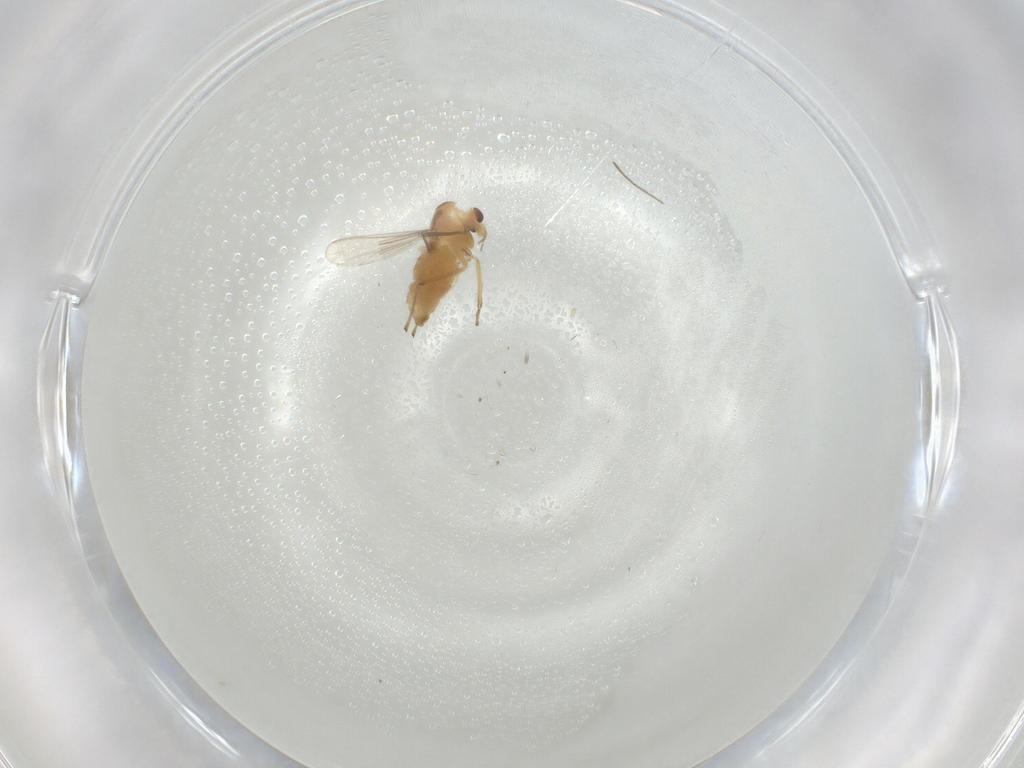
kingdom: Animalia
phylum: Arthropoda
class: Insecta
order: Diptera
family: Chironomidae
